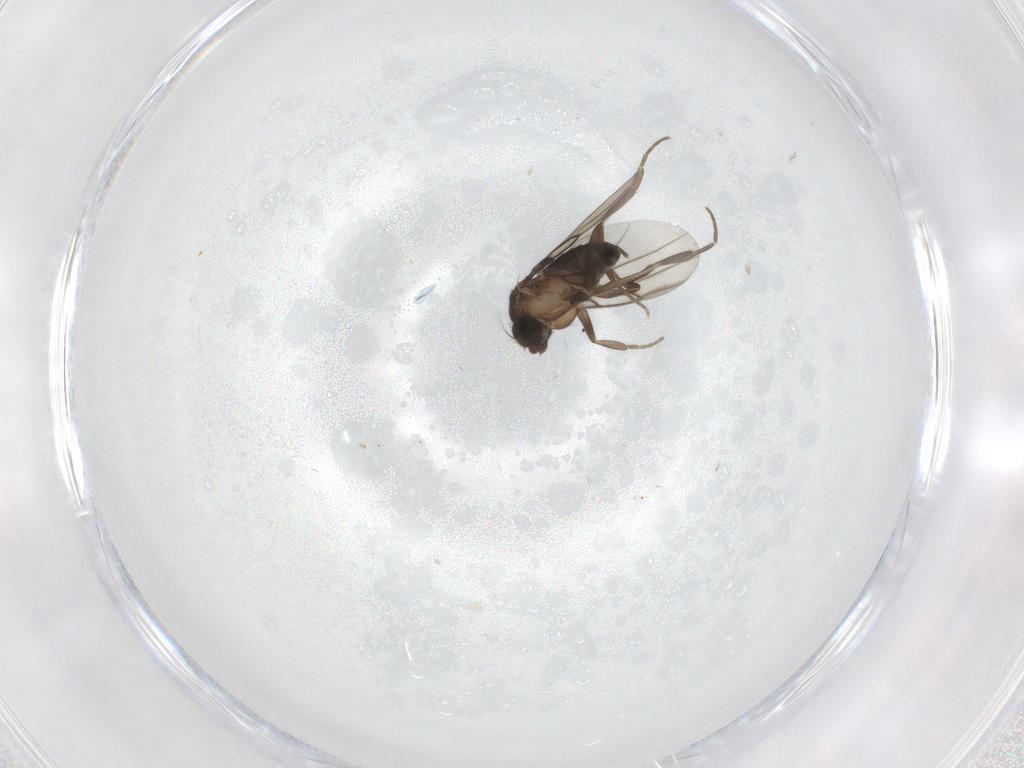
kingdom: Animalia
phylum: Arthropoda
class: Insecta
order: Diptera
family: Phoridae
